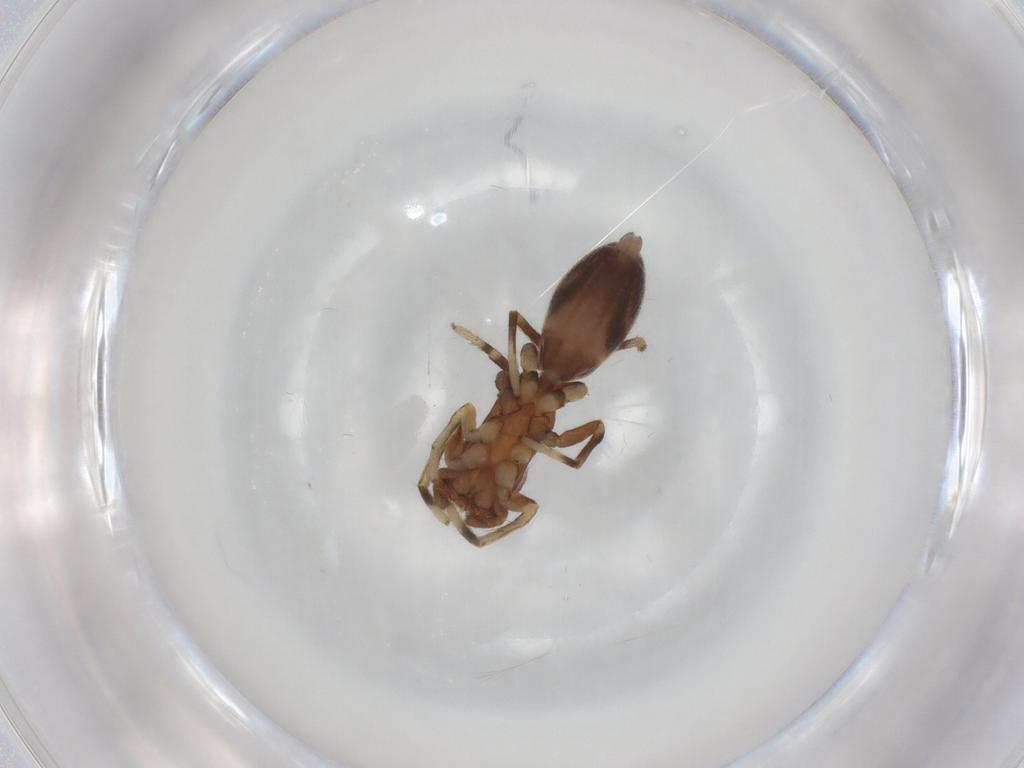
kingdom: Animalia
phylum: Arthropoda
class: Arachnida
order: Araneae
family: Salticidae
